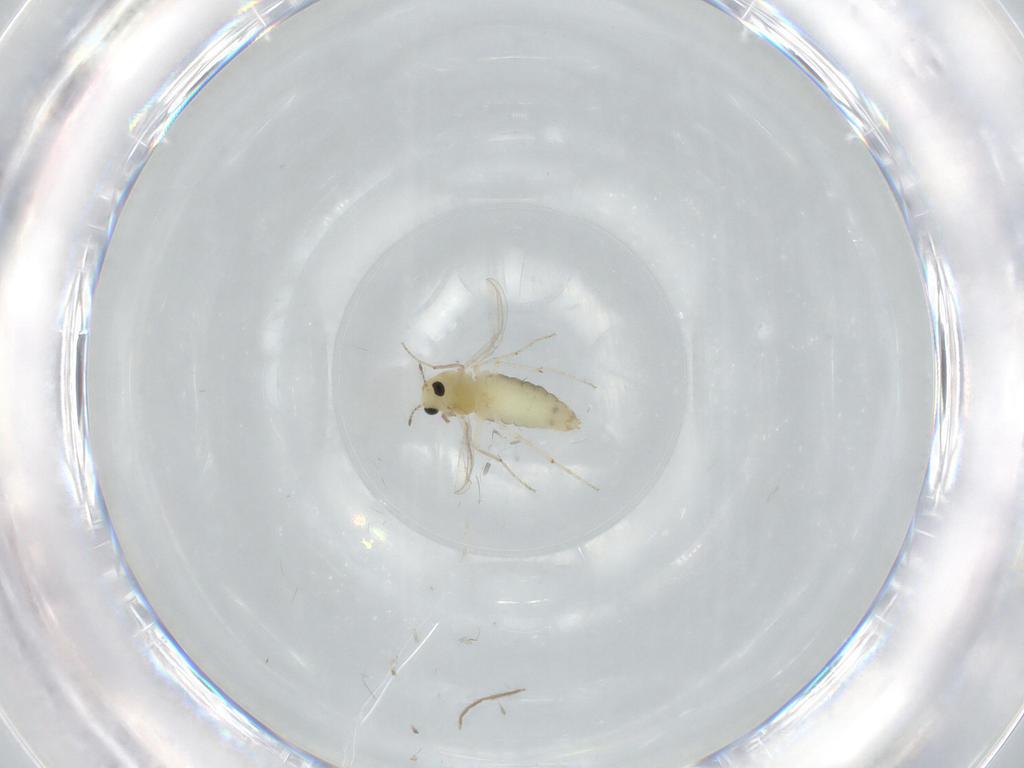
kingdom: Animalia
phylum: Arthropoda
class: Insecta
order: Diptera
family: Chironomidae
